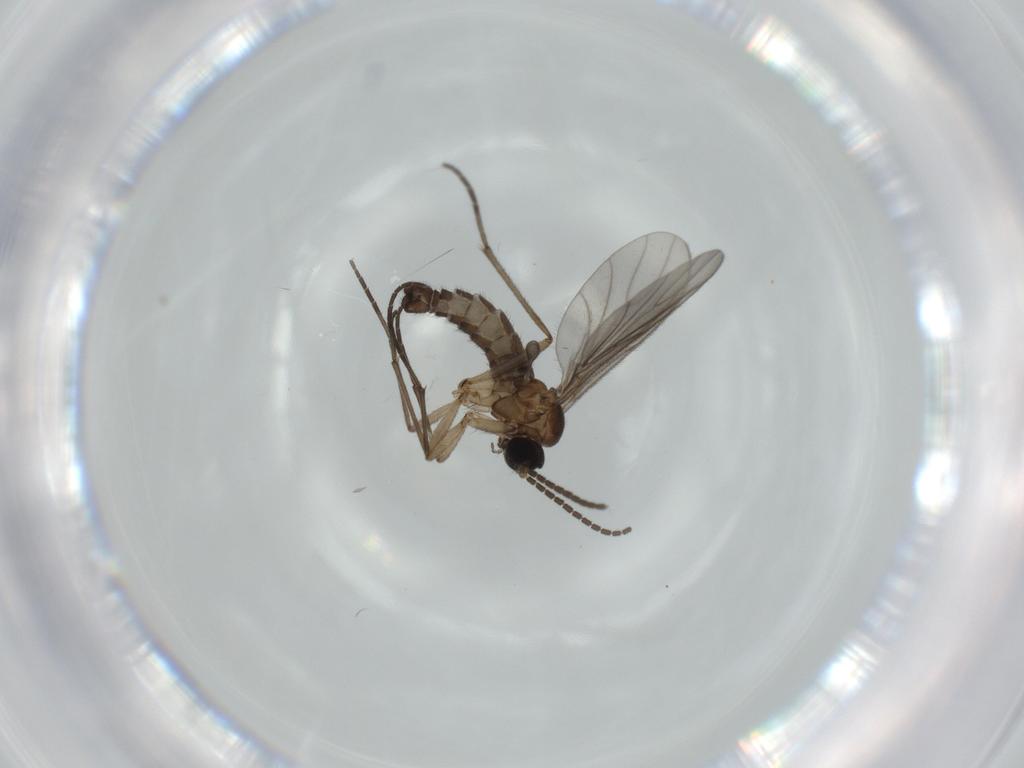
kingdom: Animalia
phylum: Arthropoda
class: Insecta
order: Diptera
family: Sciaridae
